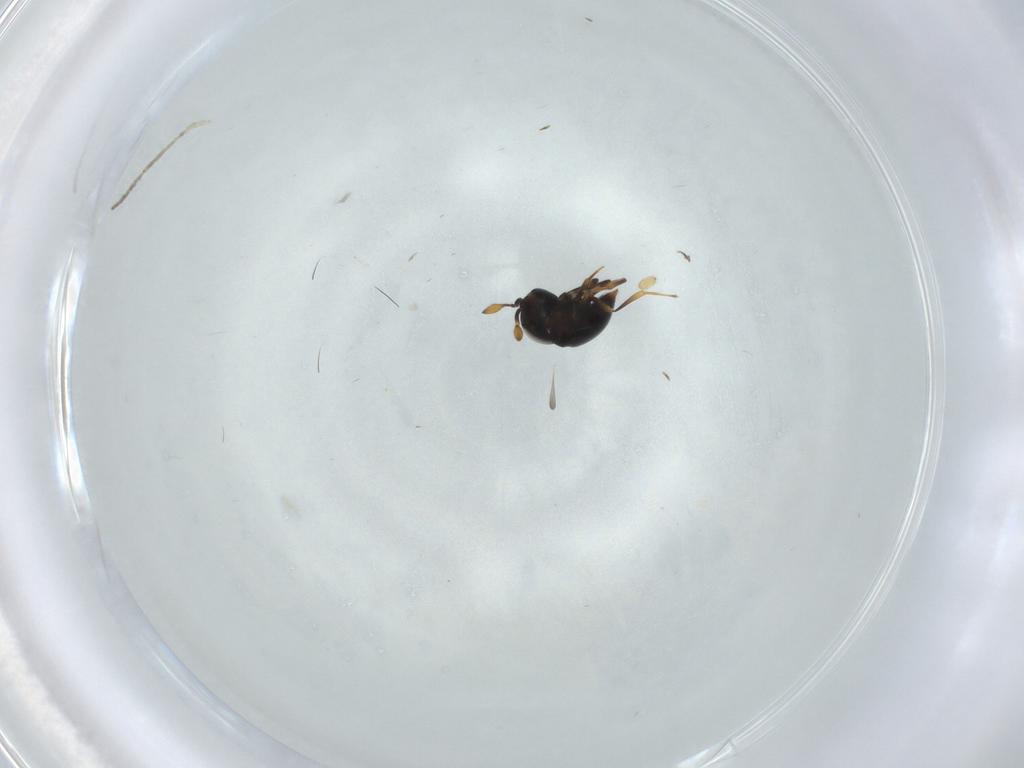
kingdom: Animalia
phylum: Arthropoda
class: Insecta
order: Hymenoptera
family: Scelionidae
